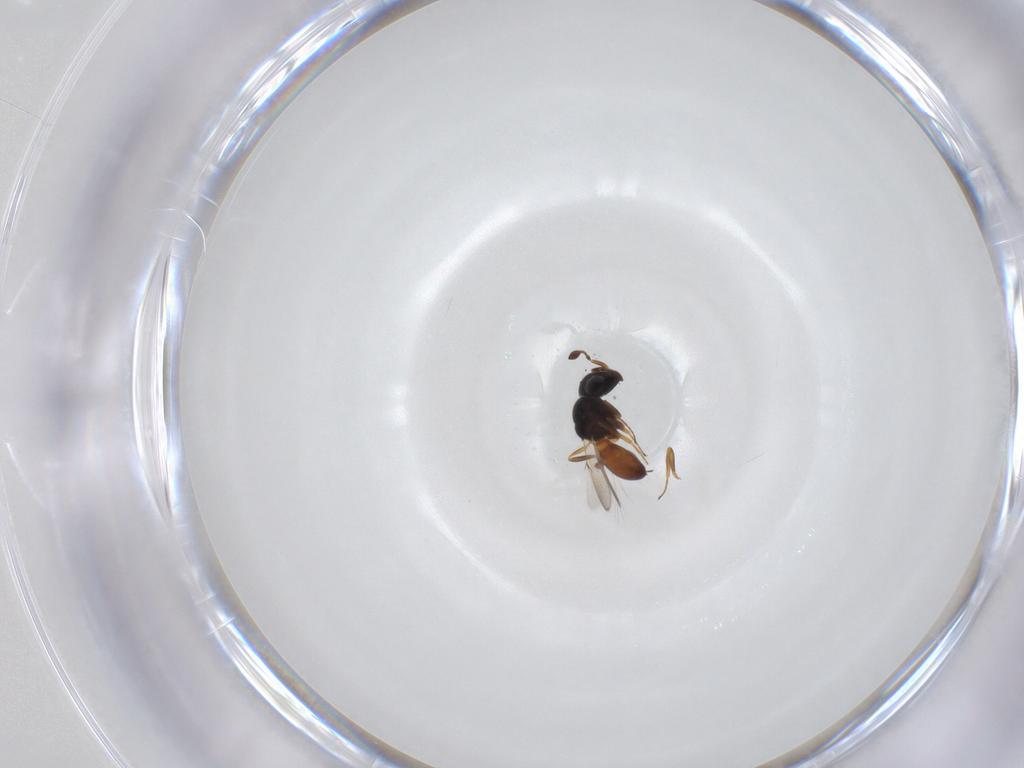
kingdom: Animalia
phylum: Arthropoda
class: Insecta
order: Hymenoptera
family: Scelionidae
